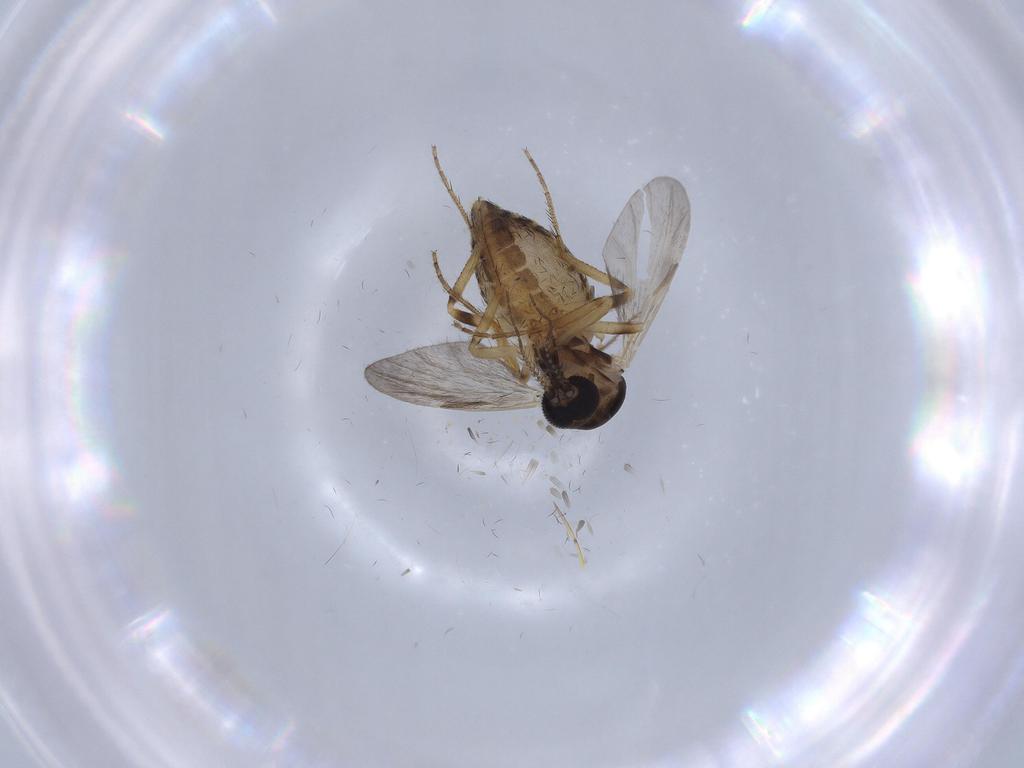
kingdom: Animalia
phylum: Arthropoda
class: Insecta
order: Diptera
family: Ceratopogonidae
